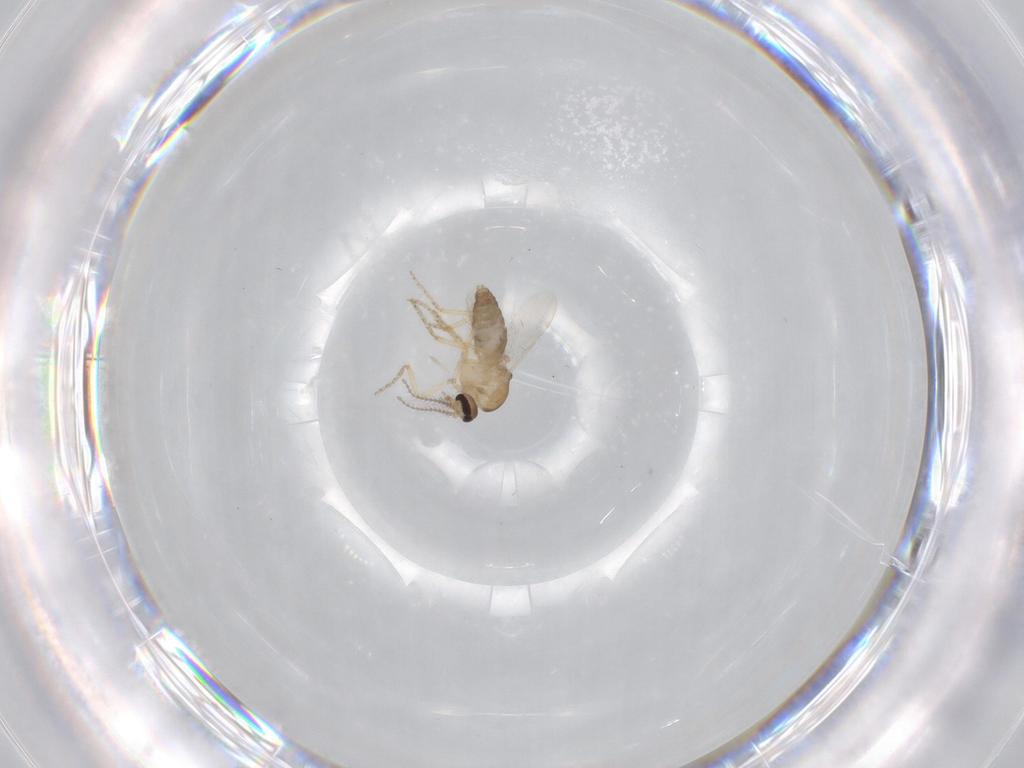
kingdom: Animalia
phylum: Arthropoda
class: Insecta
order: Diptera
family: Ceratopogonidae
